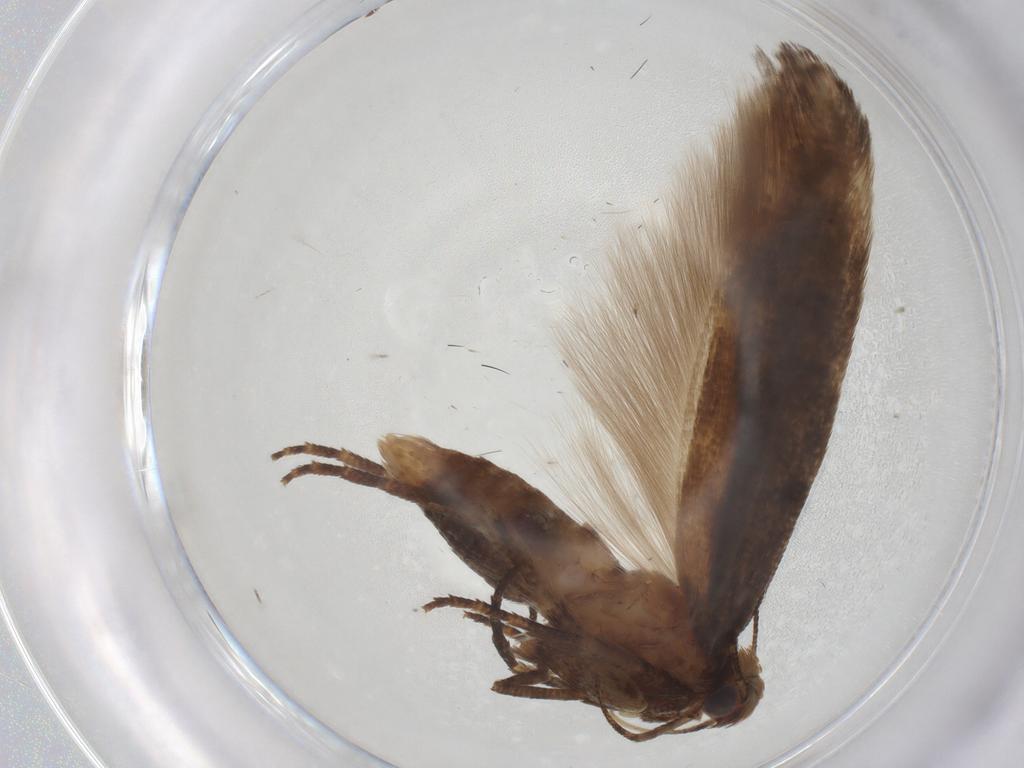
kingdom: Animalia
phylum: Arthropoda
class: Insecta
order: Lepidoptera
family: Gelechiidae
